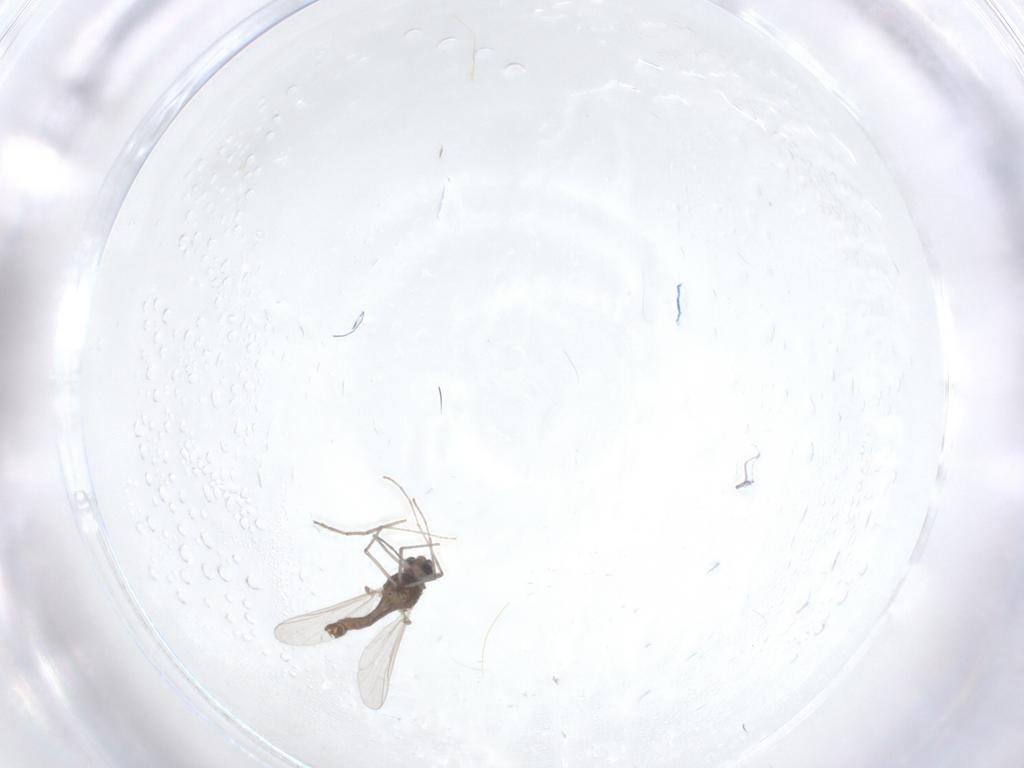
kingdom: Animalia
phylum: Arthropoda
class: Insecta
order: Diptera
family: Chironomidae
